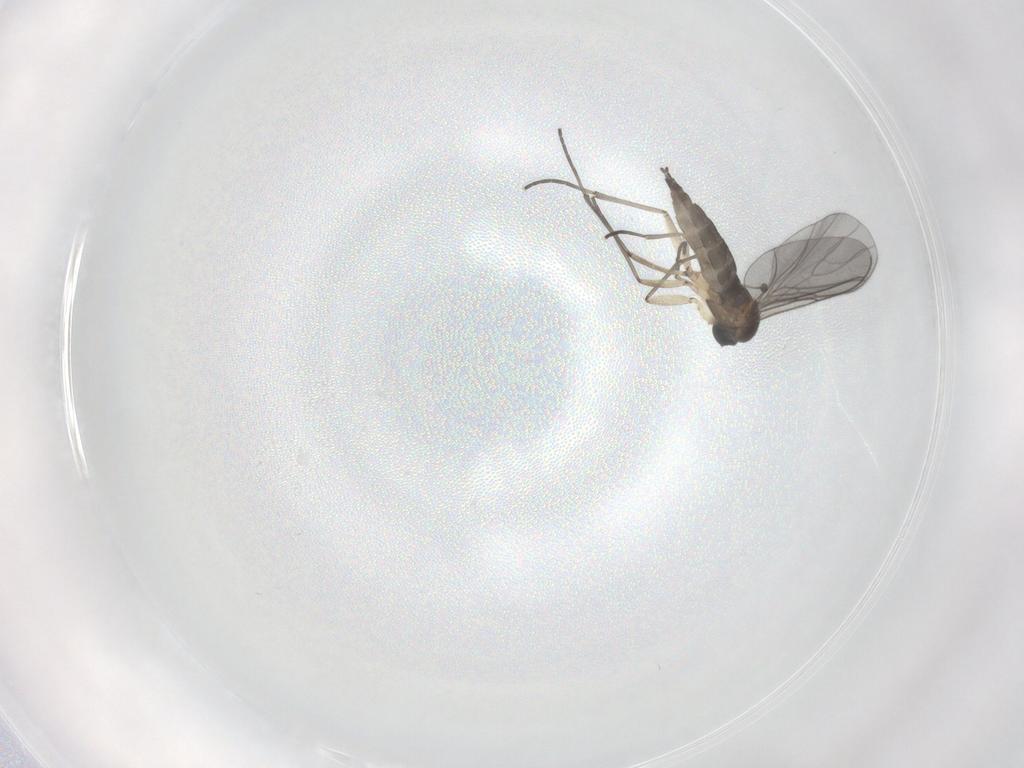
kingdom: Animalia
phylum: Arthropoda
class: Insecta
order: Diptera
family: Sciaridae
